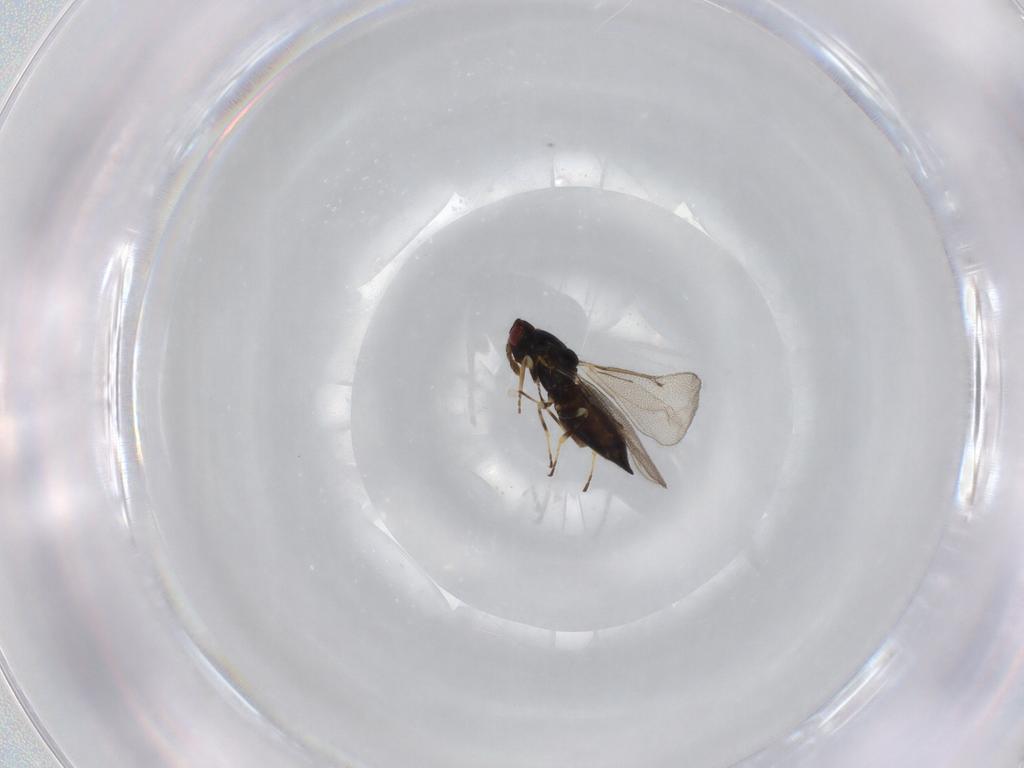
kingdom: Animalia
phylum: Arthropoda
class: Insecta
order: Hymenoptera
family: Eulophidae
